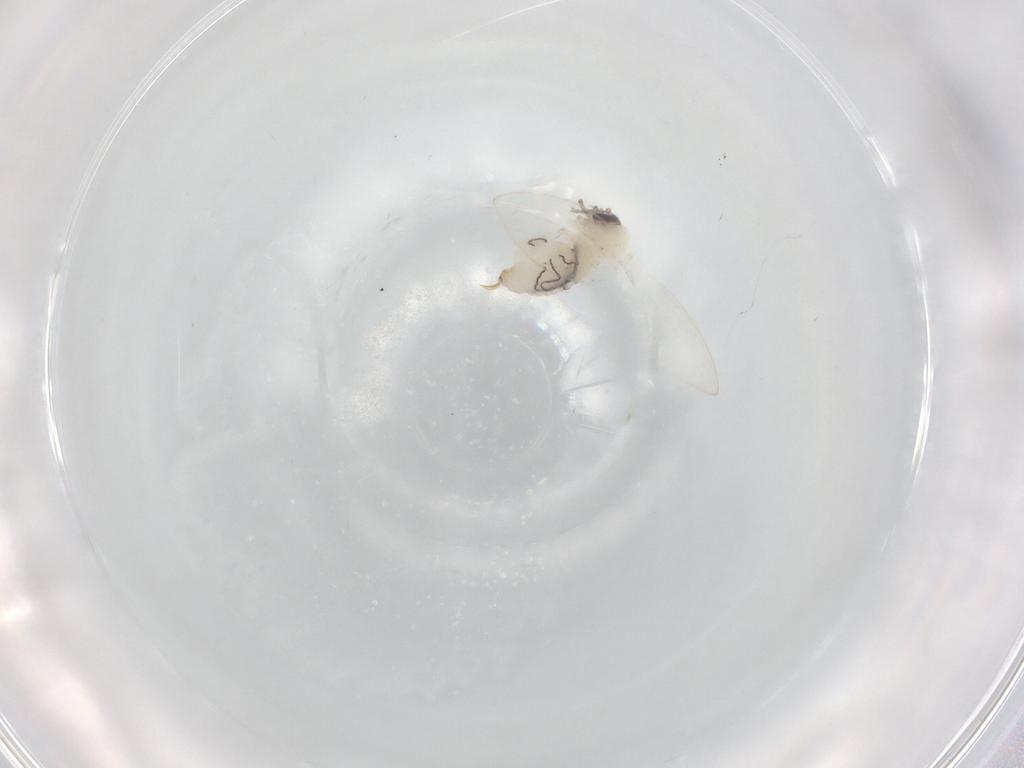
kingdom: Animalia
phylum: Arthropoda
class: Insecta
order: Diptera
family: Psychodidae
